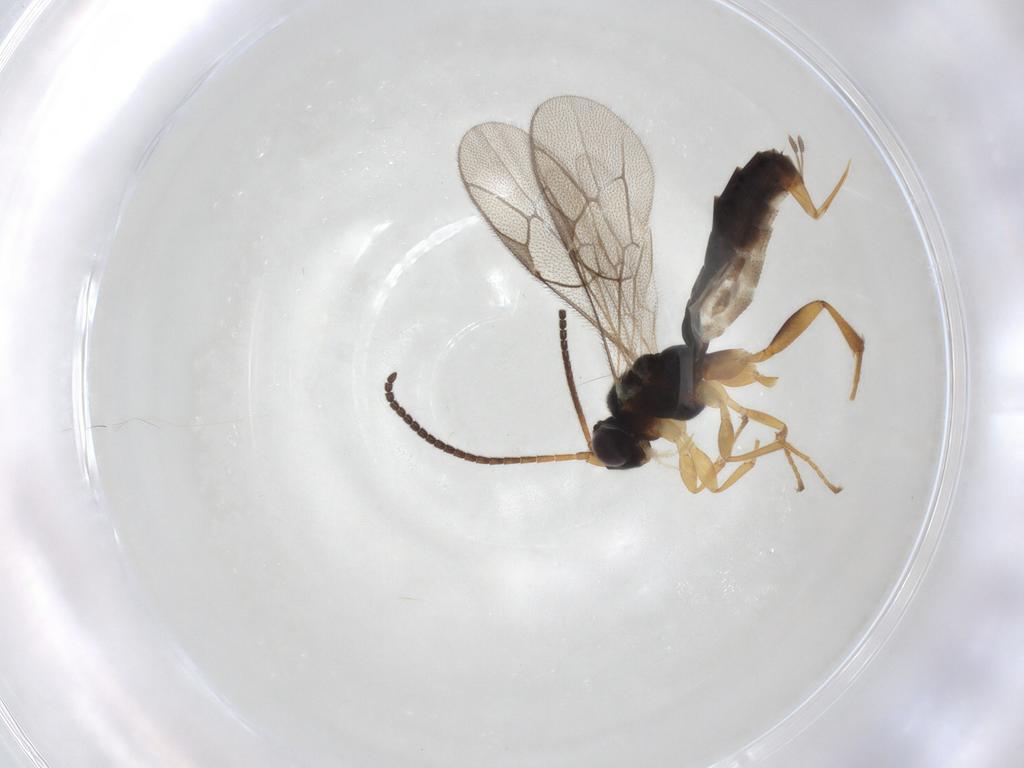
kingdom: Animalia
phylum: Arthropoda
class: Insecta
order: Hymenoptera
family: Ichneumonidae
